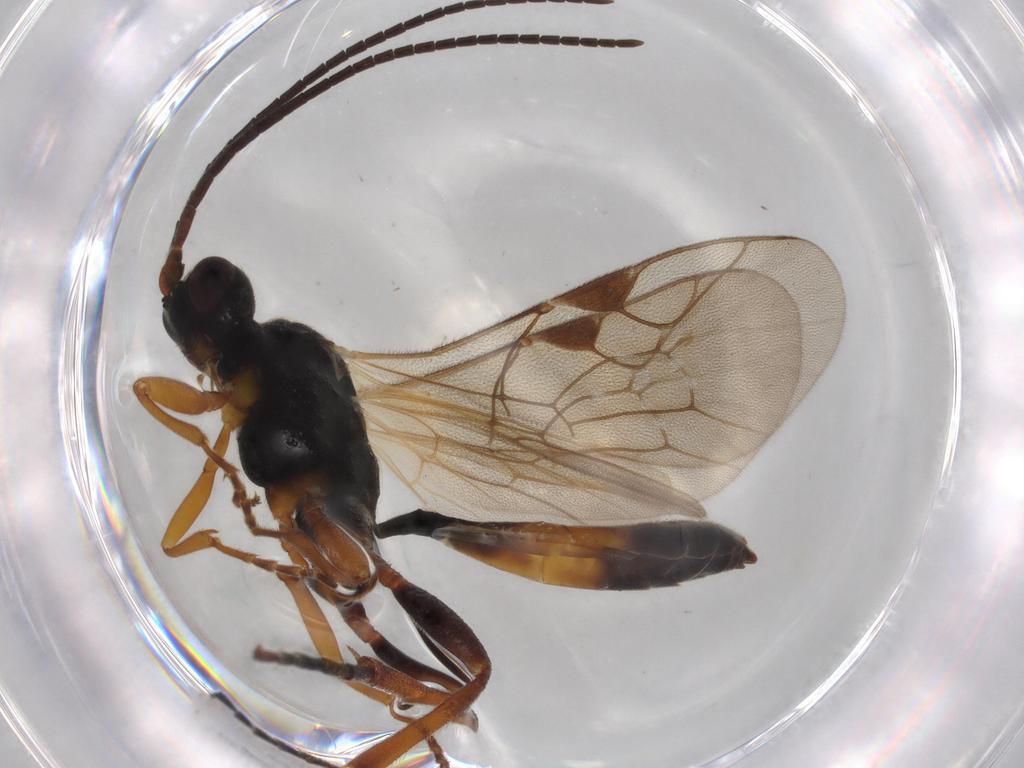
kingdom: Animalia
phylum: Arthropoda
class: Insecta
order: Hymenoptera
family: Ichneumonidae
